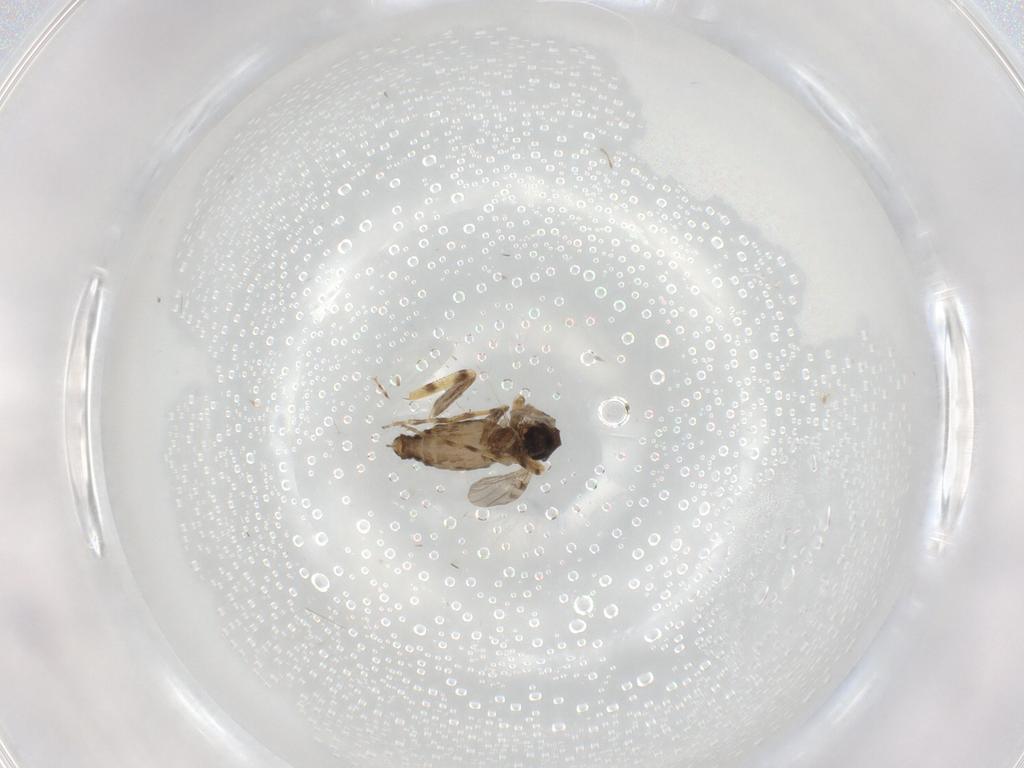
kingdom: Animalia
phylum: Arthropoda
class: Insecta
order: Diptera
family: Ceratopogonidae
